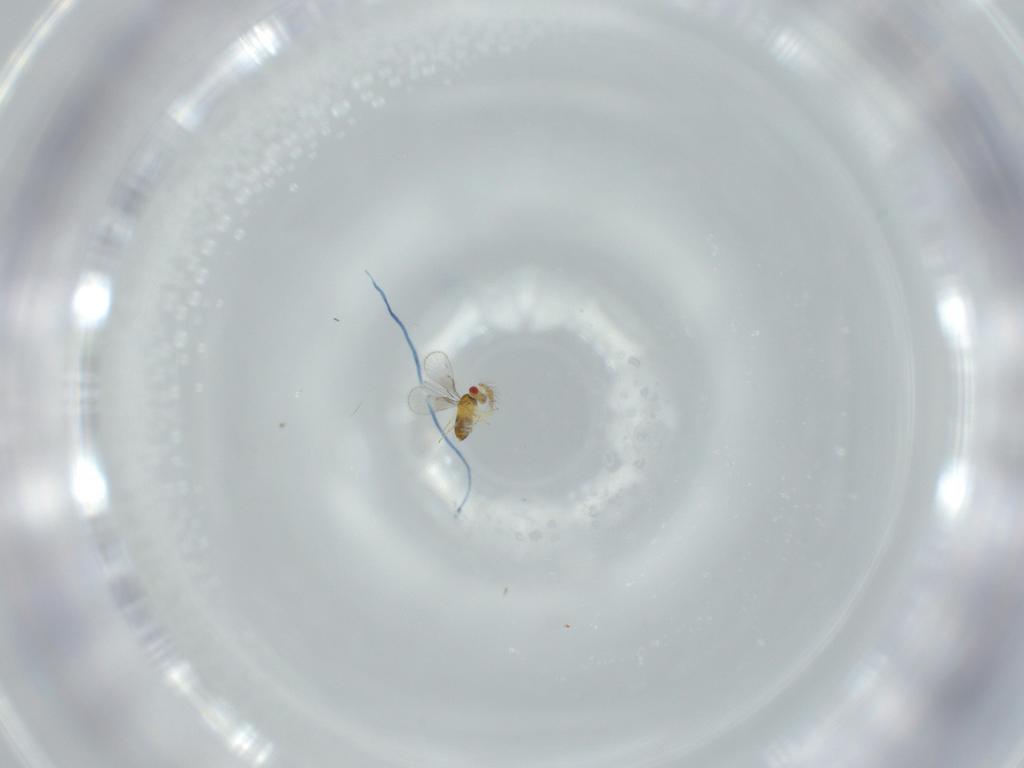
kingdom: Animalia
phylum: Arthropoda
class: Insecta
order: Hymenoptera
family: Trichogrammatidae
